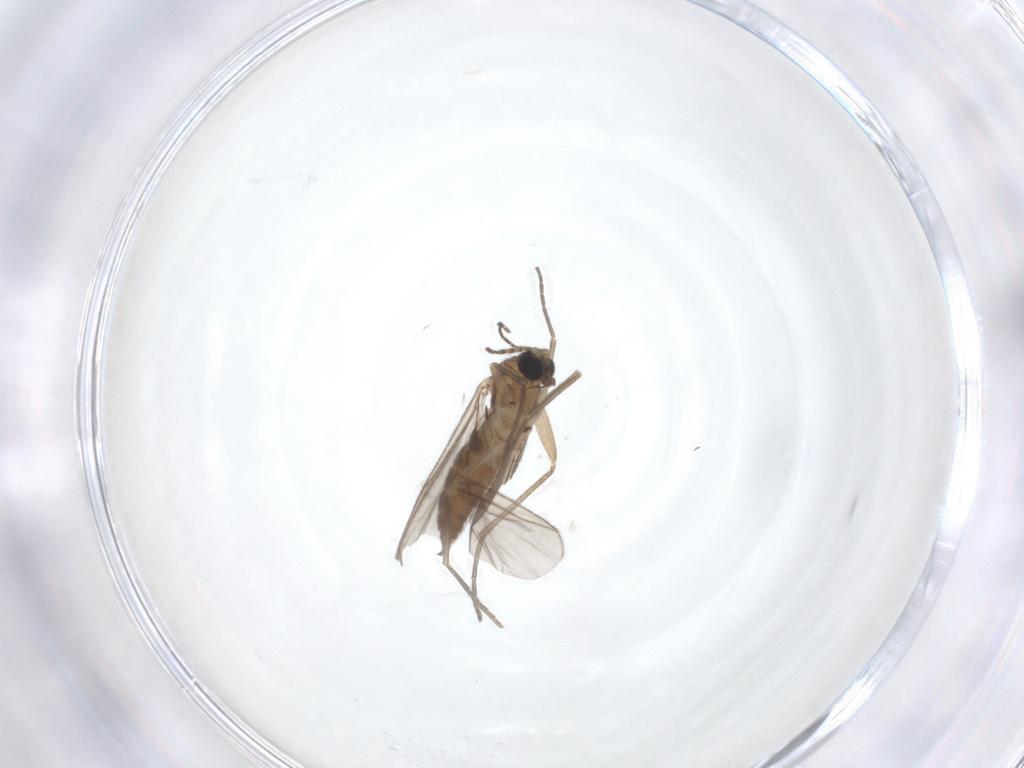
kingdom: Animalia
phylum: Arthropoda
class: Insecta
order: Diptera
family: Sciaridae
